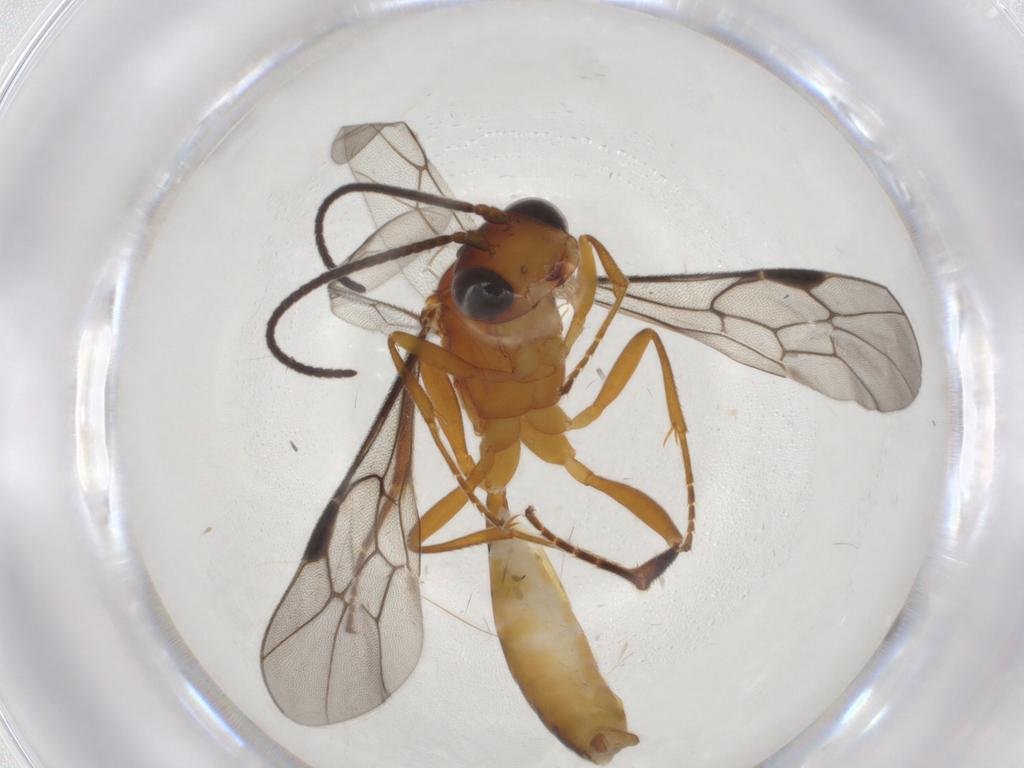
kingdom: Animalia
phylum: Arthropoda
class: Insecta
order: Hymenoptera
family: Ichneumonidae
